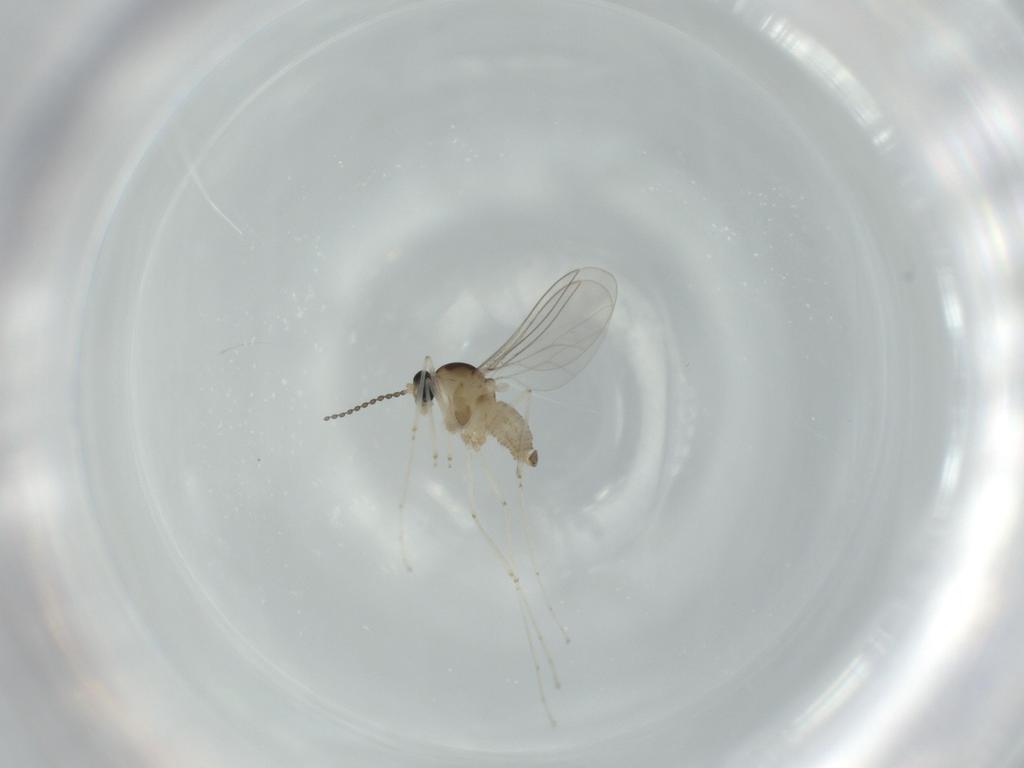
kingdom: Animalia
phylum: Arthropoda
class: Insecta
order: Diptera
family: Cecidomyiidae
